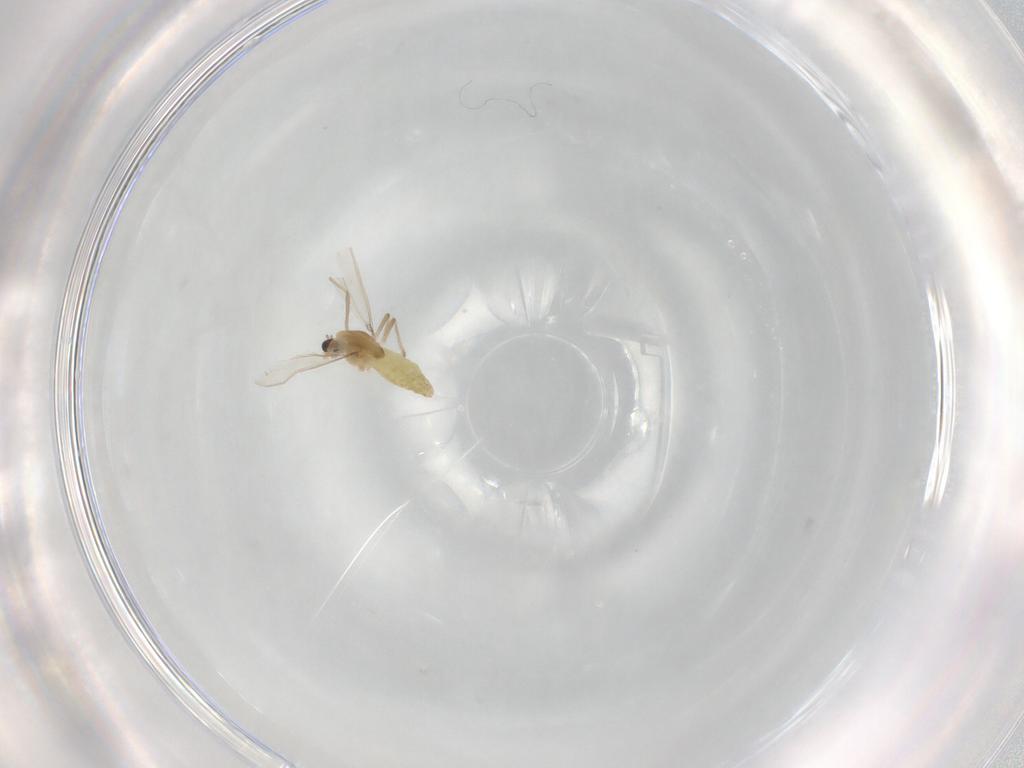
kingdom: Animalia
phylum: Arthropoda
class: Insecta
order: Diptera
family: Chironomidae
